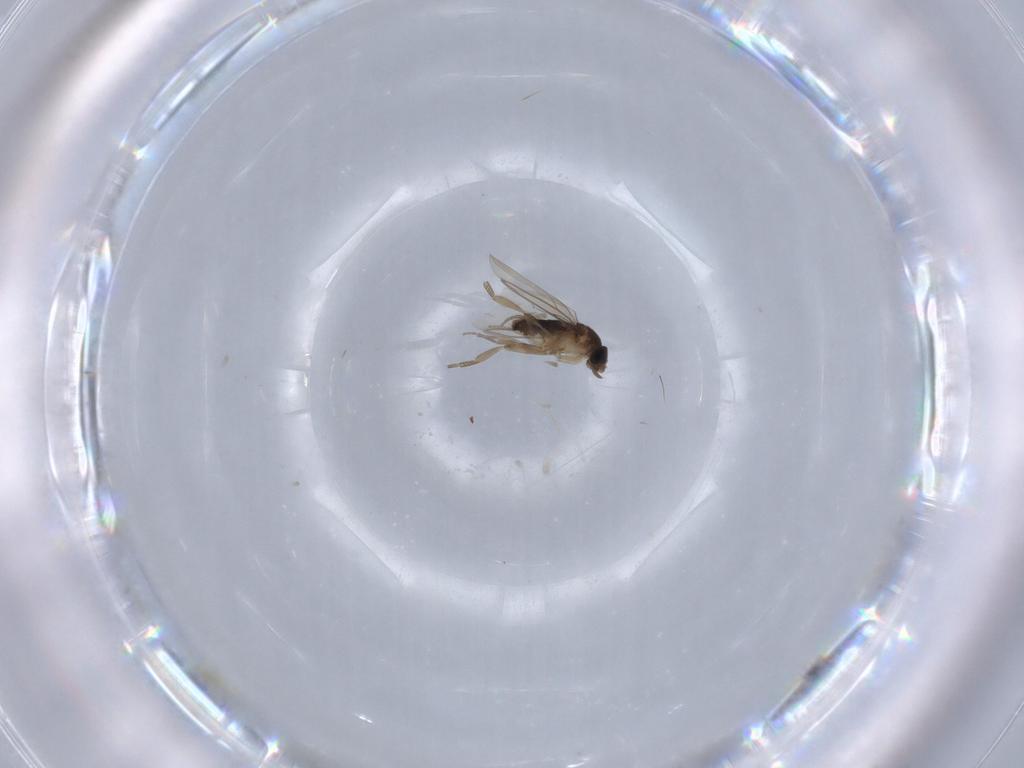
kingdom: Animalia
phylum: Arthropoda
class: Insecta
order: Diptera
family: Phoridae
